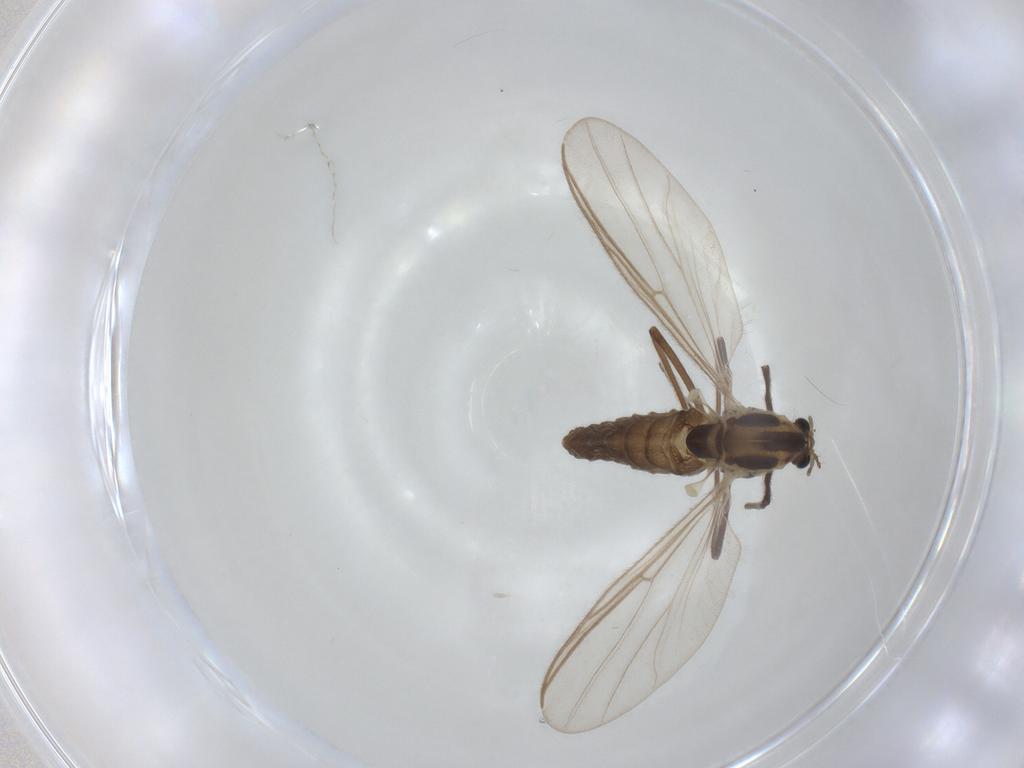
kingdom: Animalia
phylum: Arthropoda
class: Insecta
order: Diptera
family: Chironomidae
